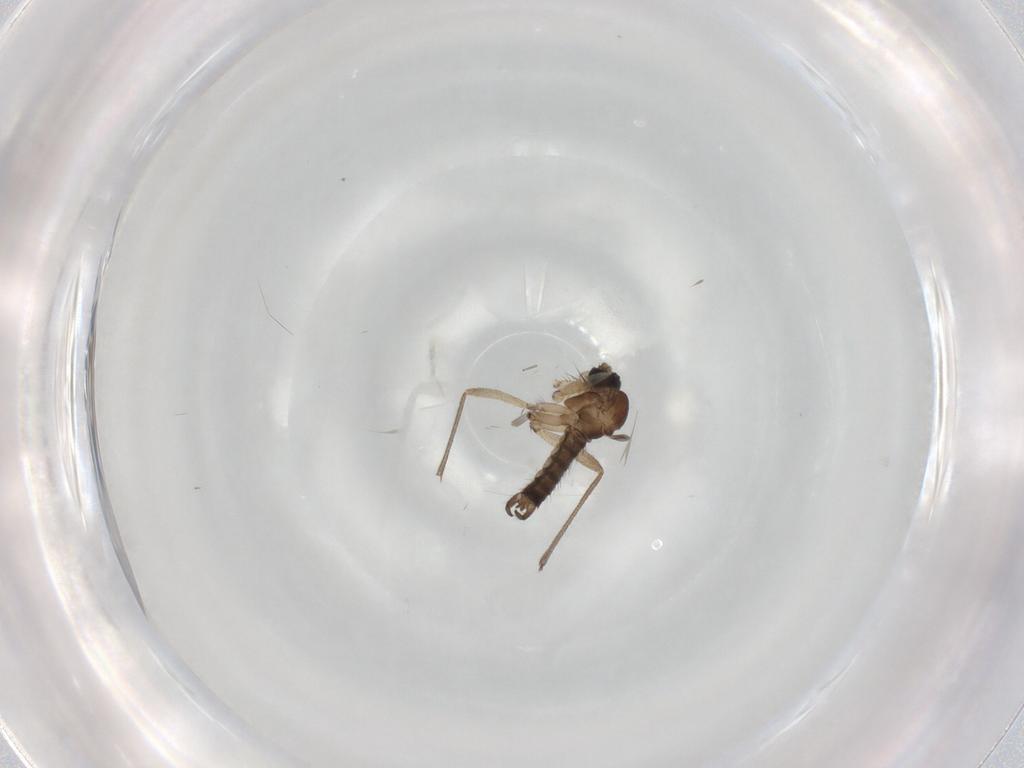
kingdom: Animalia
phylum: Arthropoda
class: Insecta
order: Diptera
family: Sciaridae
